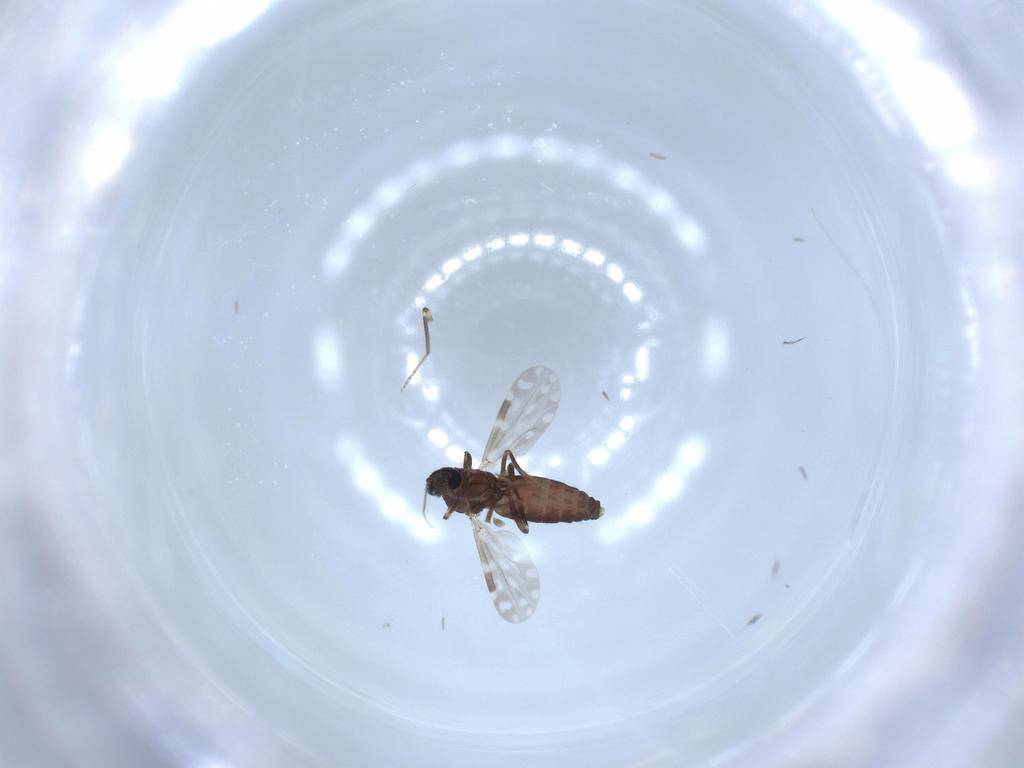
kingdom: Animalia
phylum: Arthropoda
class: Insecta
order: Diptera
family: Ceratopogonidae
